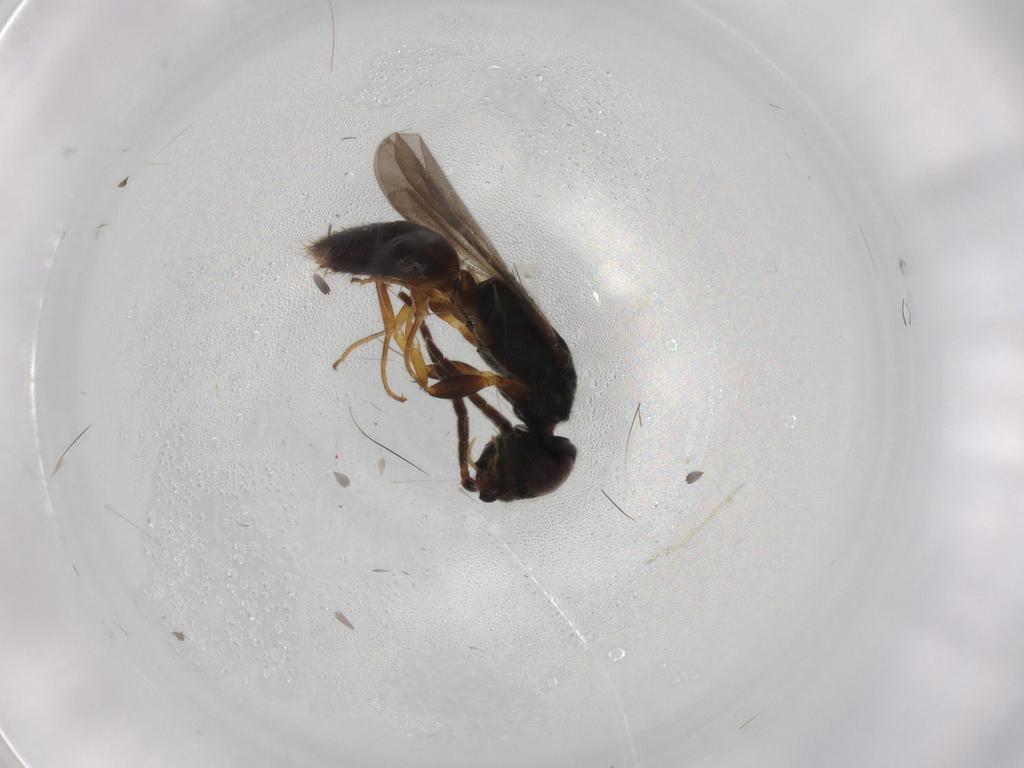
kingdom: Animalia
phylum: Arthropoda
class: Insecta
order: Hymenoptera
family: Bethylidae
